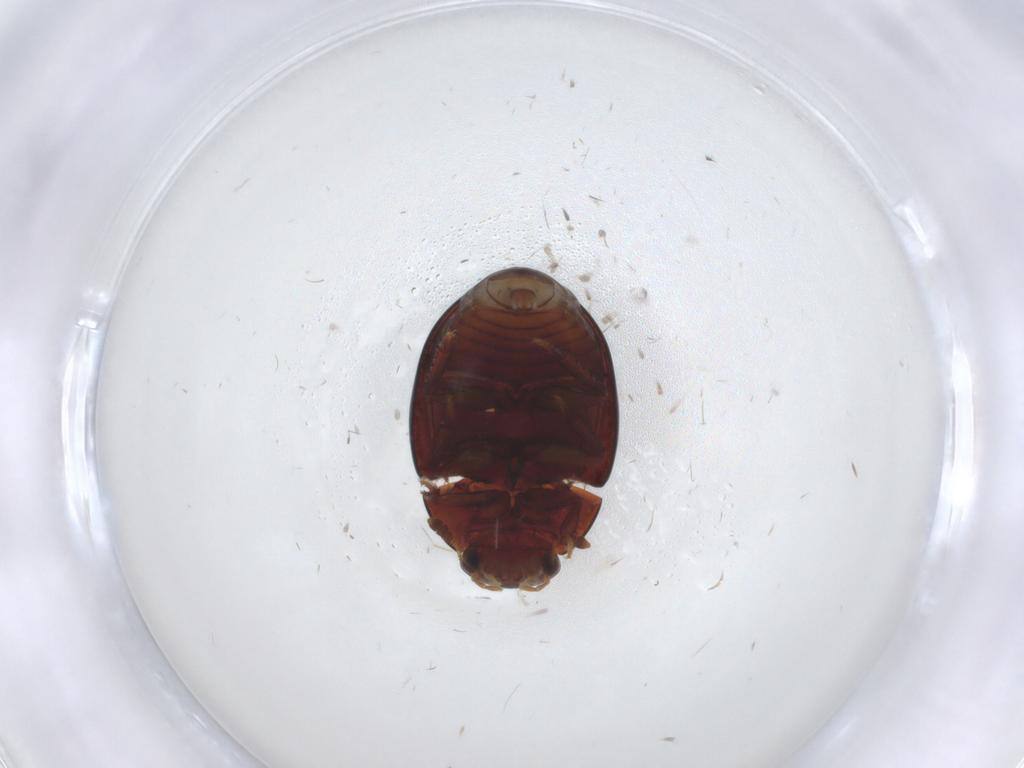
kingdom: Animalia
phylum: Arthropoda
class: Insecta
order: Coleoptera
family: Hydrophilidae
